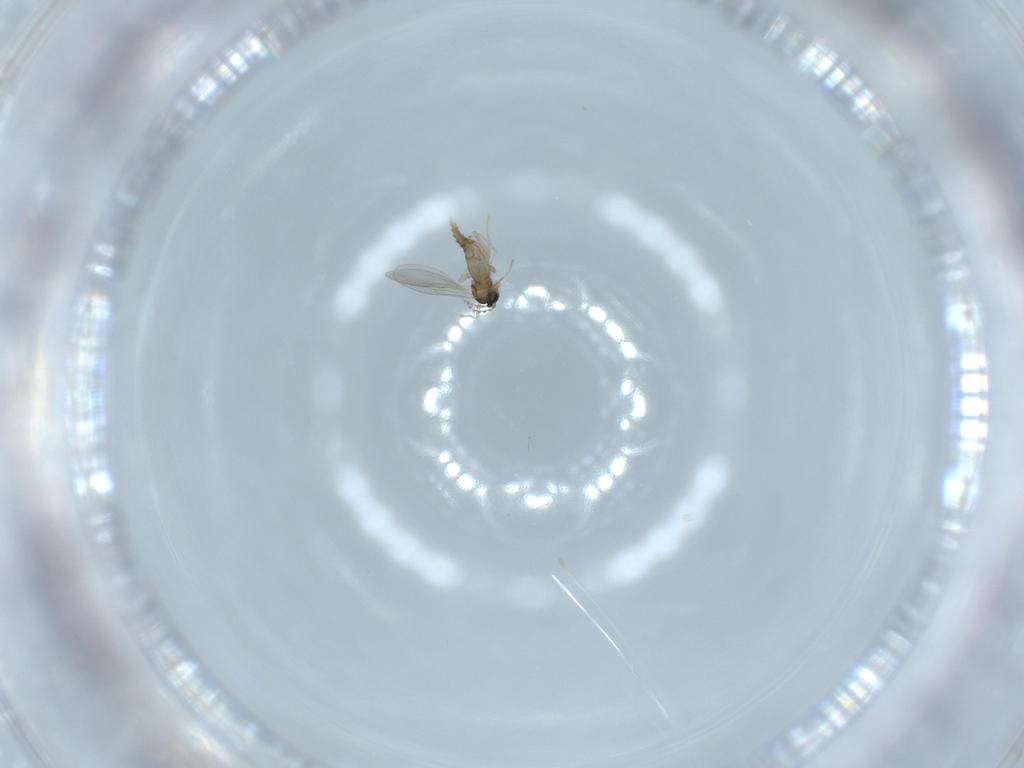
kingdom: Animalia
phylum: Arthropoda
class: Insecta
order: Diptera
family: Cecidomyiidae
